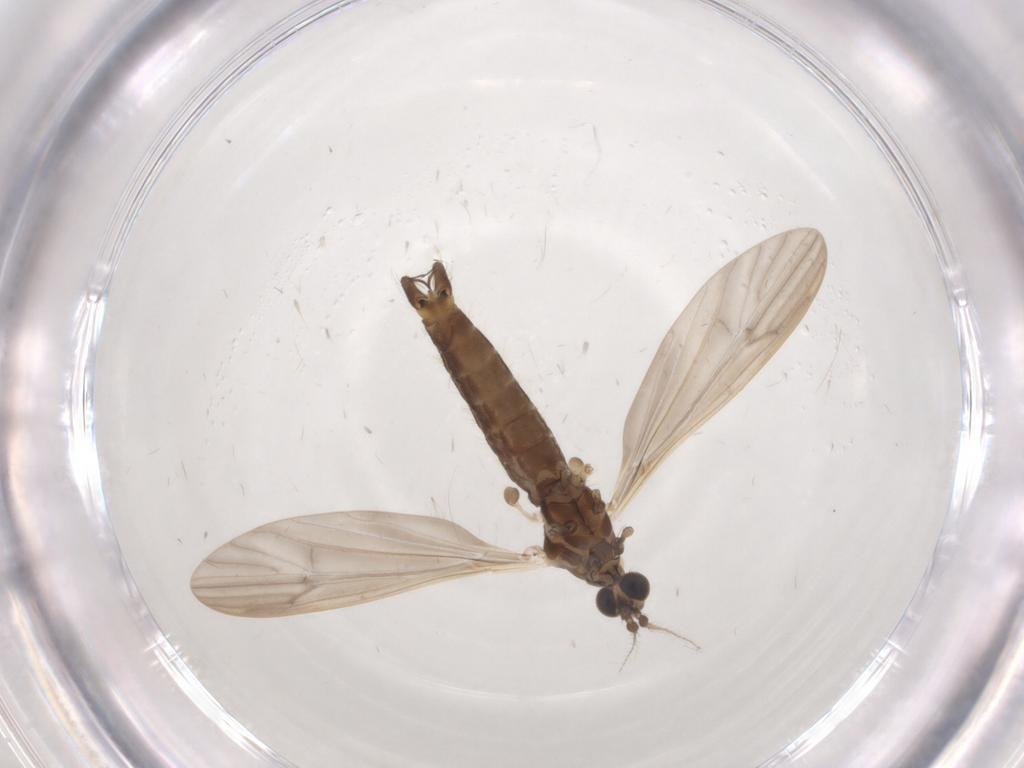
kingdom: Animalia
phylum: Arthropoda
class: Insecta
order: Diptera
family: Limoniidae
